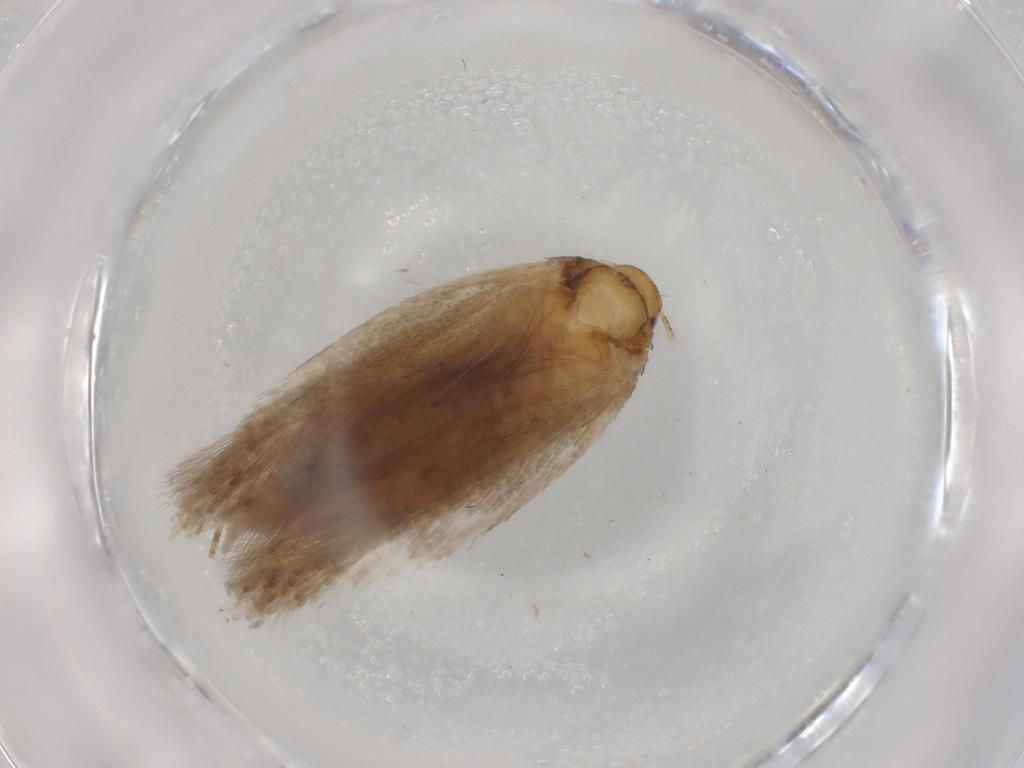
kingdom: Animalia
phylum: Arthropoda
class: Insecta
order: Lepidoptera
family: Gelechiidae
